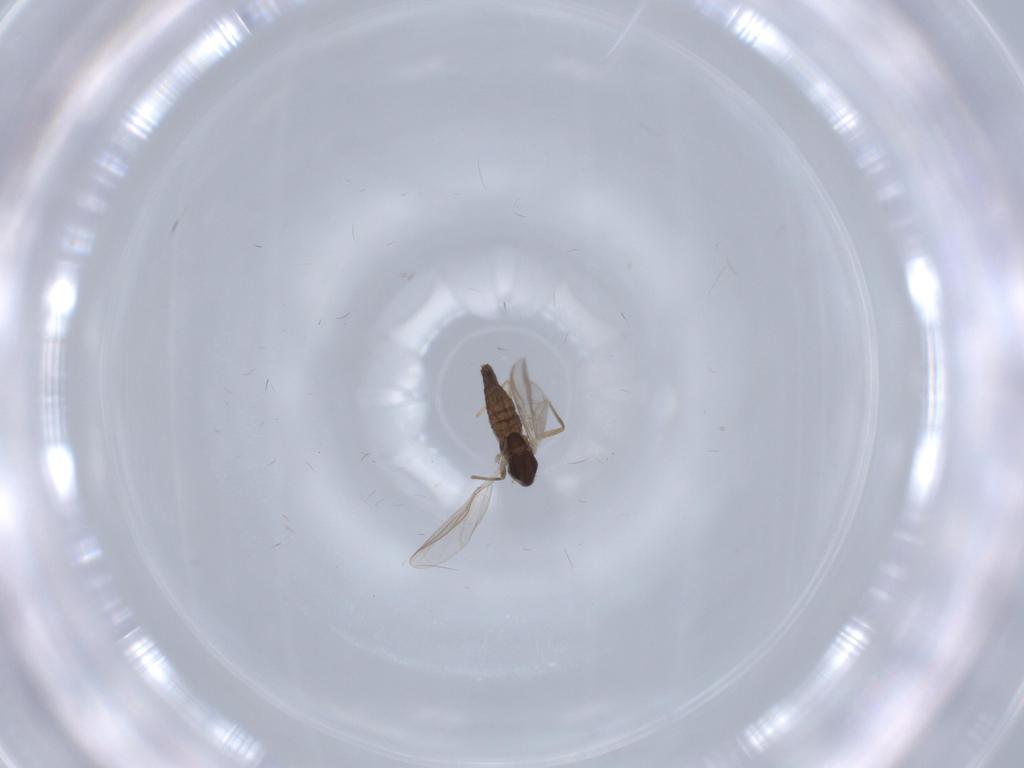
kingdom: Animalia
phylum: Arthropoda
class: Insecta
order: Diptera
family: Chironomidae
